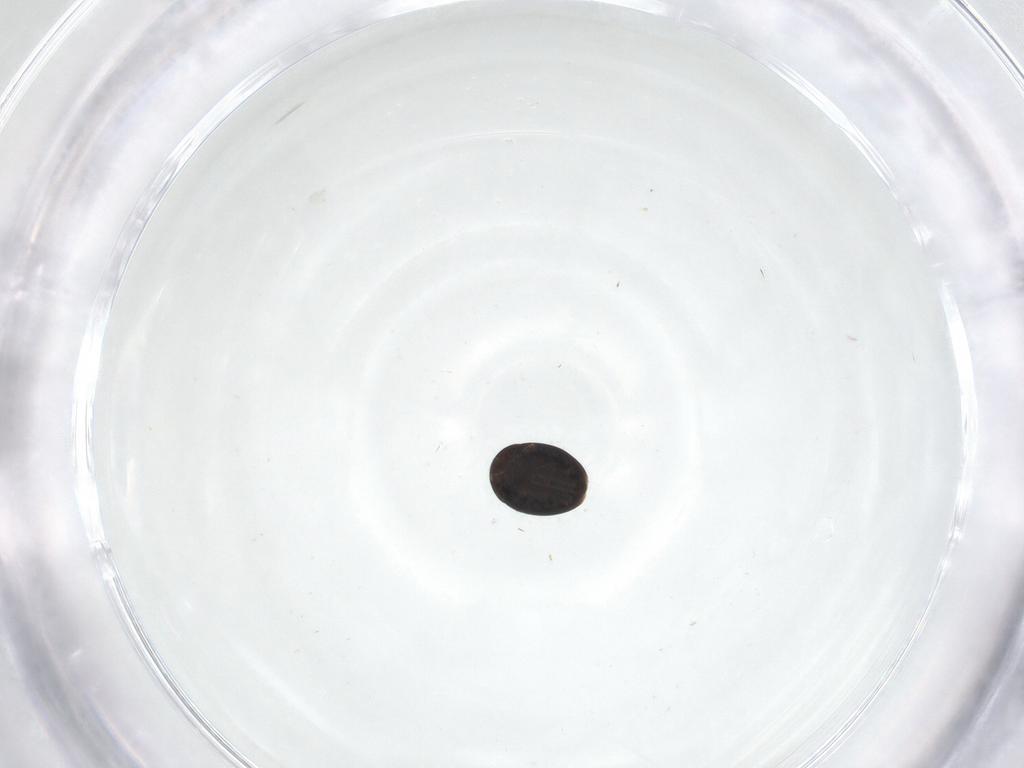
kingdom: Animalia
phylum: Arthropoda
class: Insecta
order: Coleoptera
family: Corylophidae
